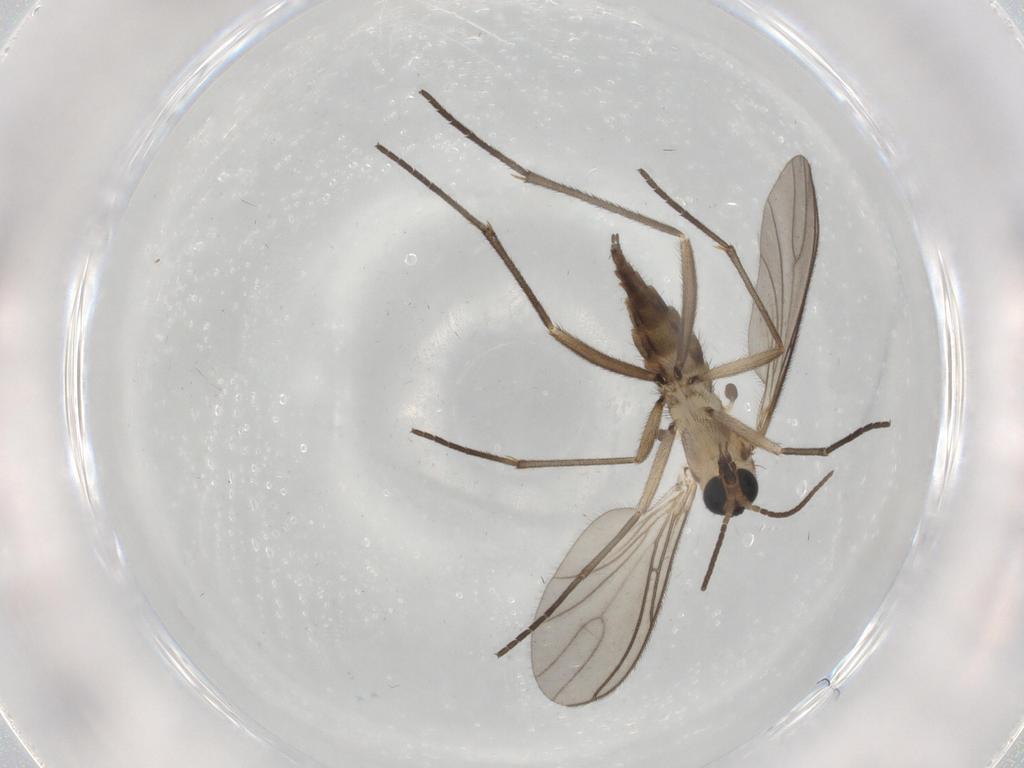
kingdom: Animalia
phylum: Arthropoda
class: Insecta
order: Diptera
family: Sciaridae
